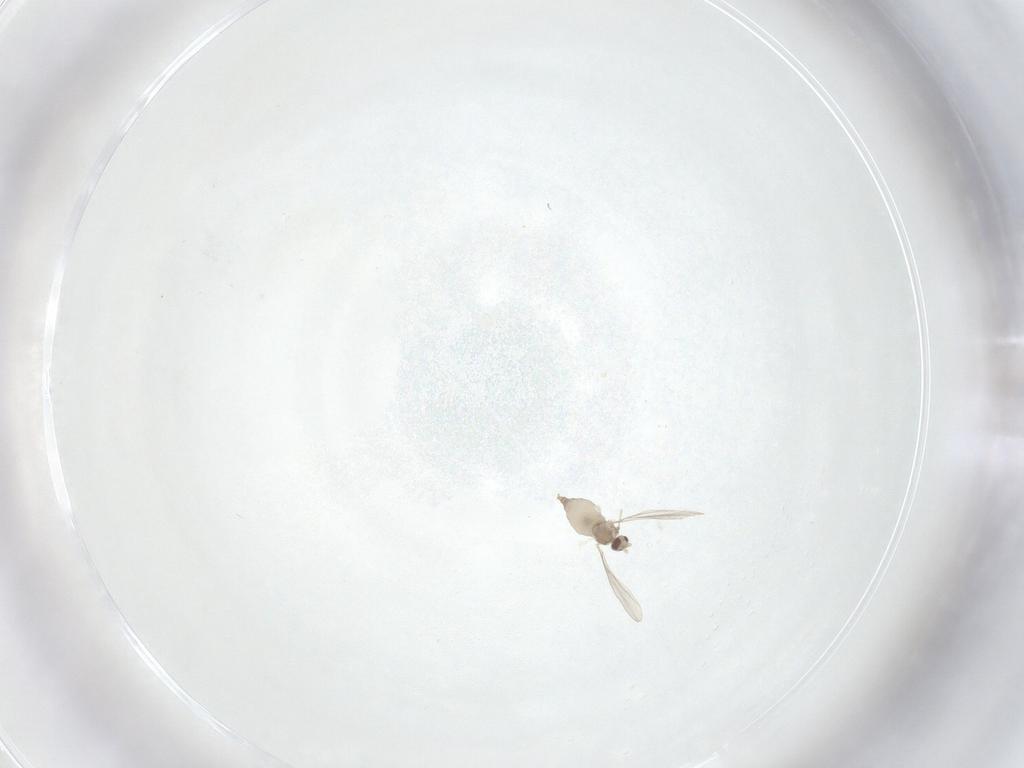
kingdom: Animalia
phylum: Arthropoda
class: Insecta
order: Diptera
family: Cecidomyiidae
